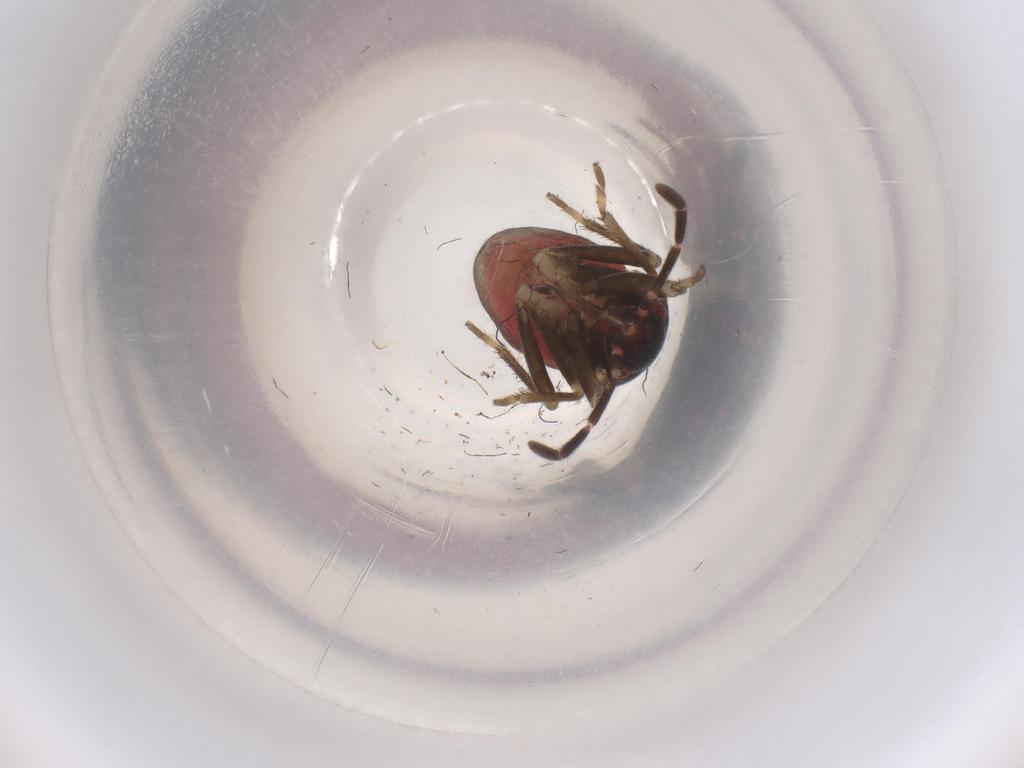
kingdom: Animalia
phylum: Arthropoda
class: Insecta
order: Hemiptera
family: Rhyparochromidae
